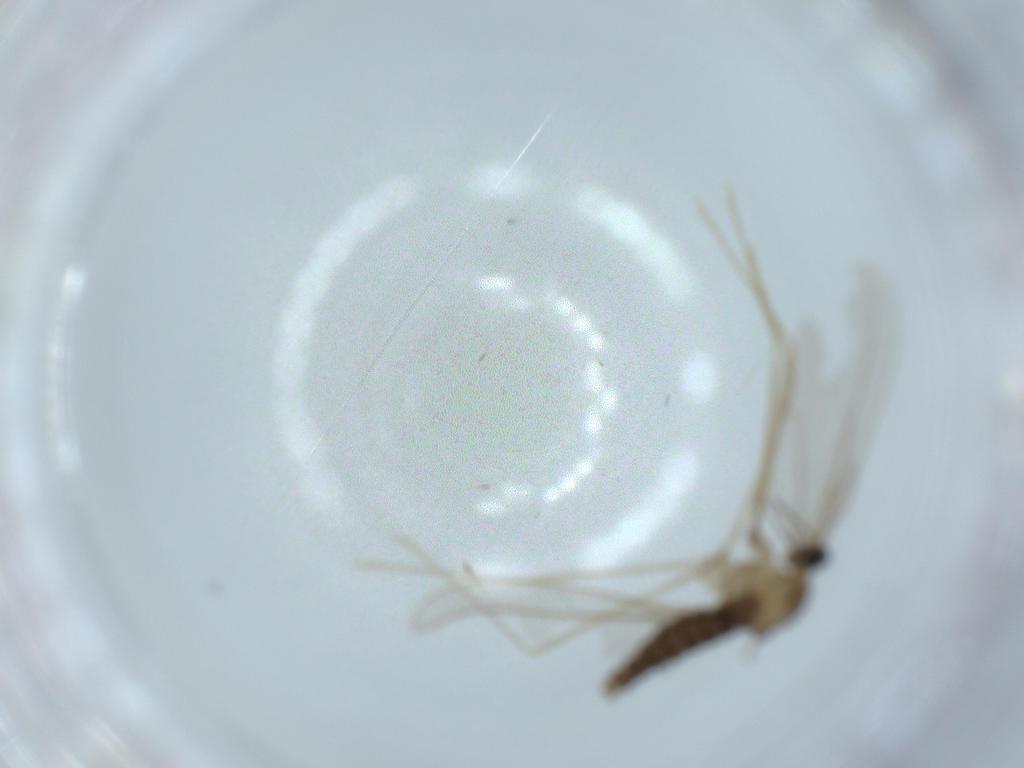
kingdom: Animalia
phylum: Arthropoda
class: Insecta
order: Diptera
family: Cecidomyiidae
